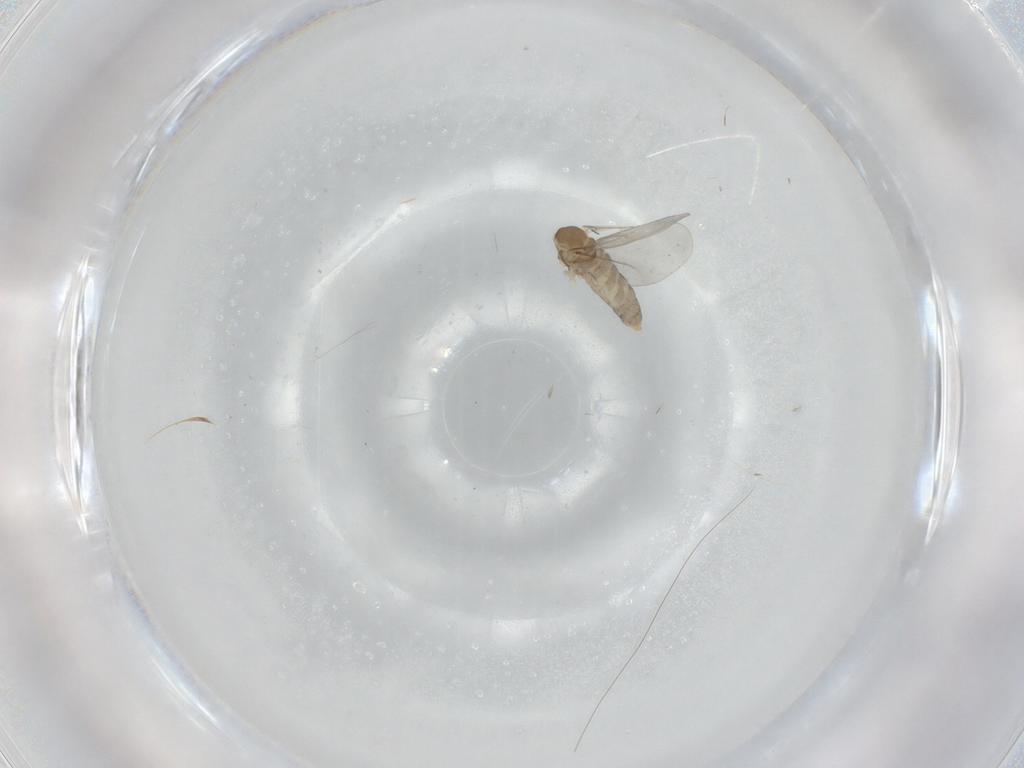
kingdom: Animalia
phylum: Arthropoda
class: Insecta
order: Diptera
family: Cecidomyiidae
